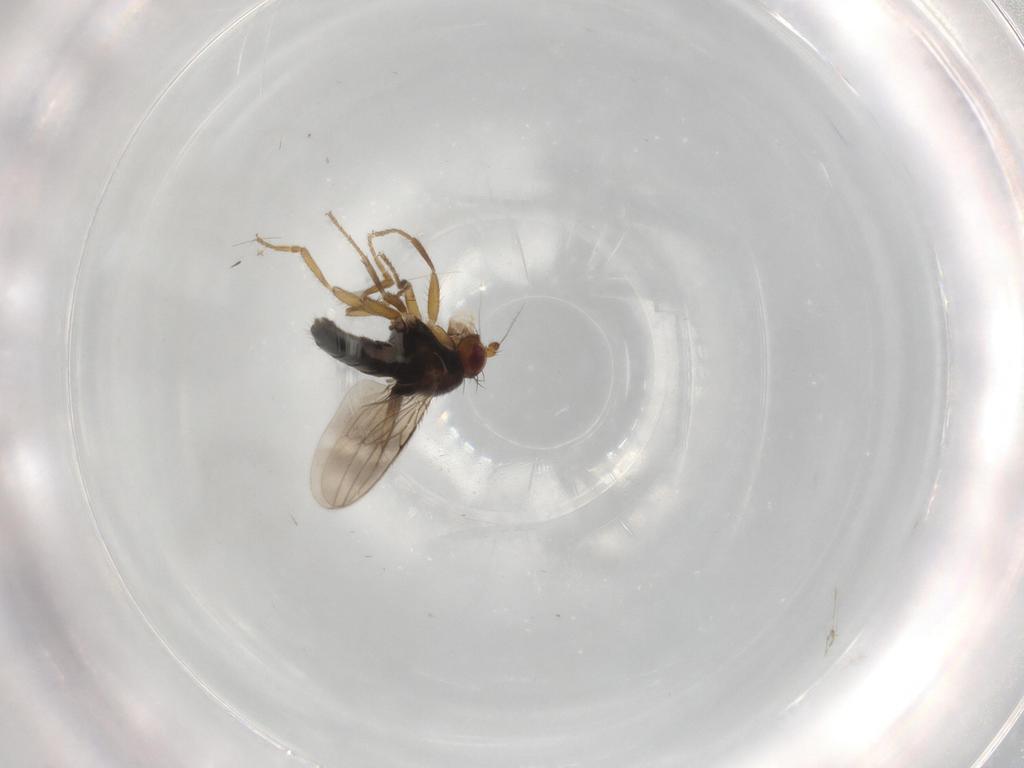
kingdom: Animalia
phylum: Arthropoda
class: Insecta
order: Diptera
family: Sphaeroceridae
